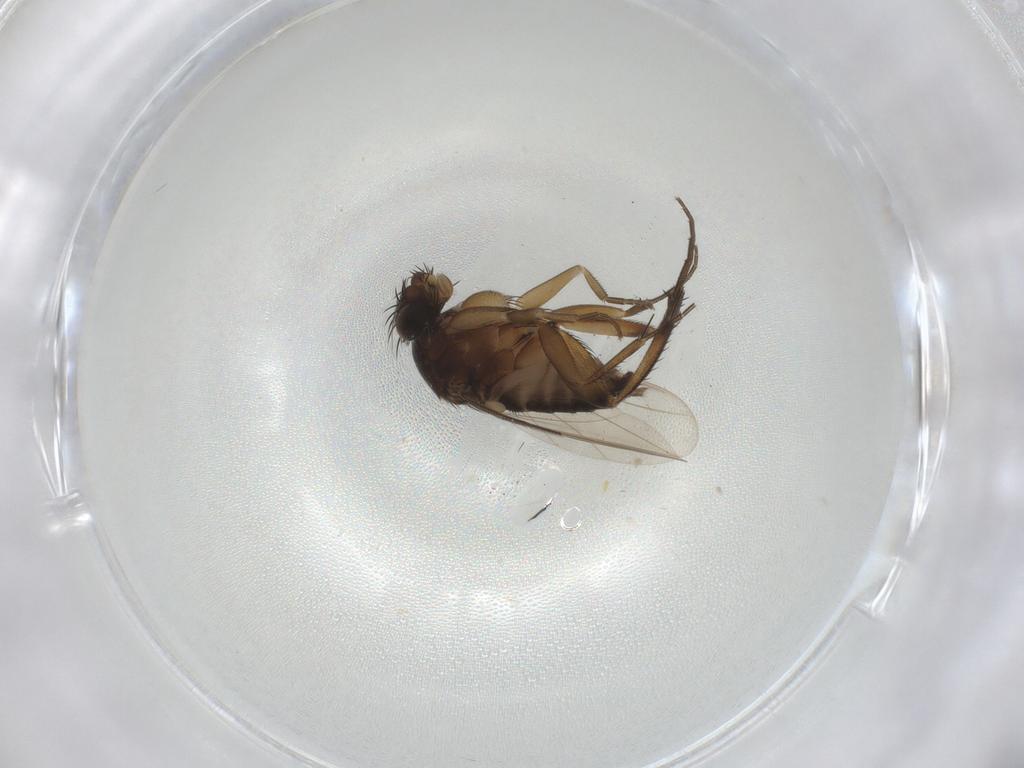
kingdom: Animalia
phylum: Arthropoda
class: Insecta
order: Diptera
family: Phoridae
